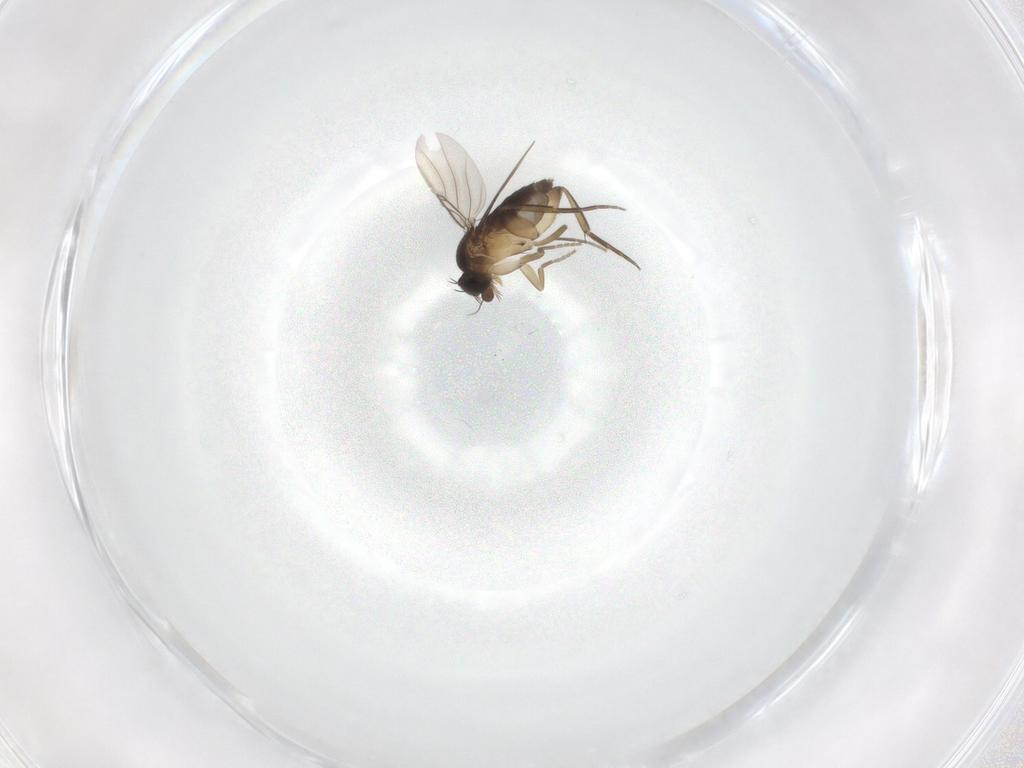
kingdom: Animalia
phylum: Arthropoda
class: Insecta
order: Diptera
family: Phoridae
